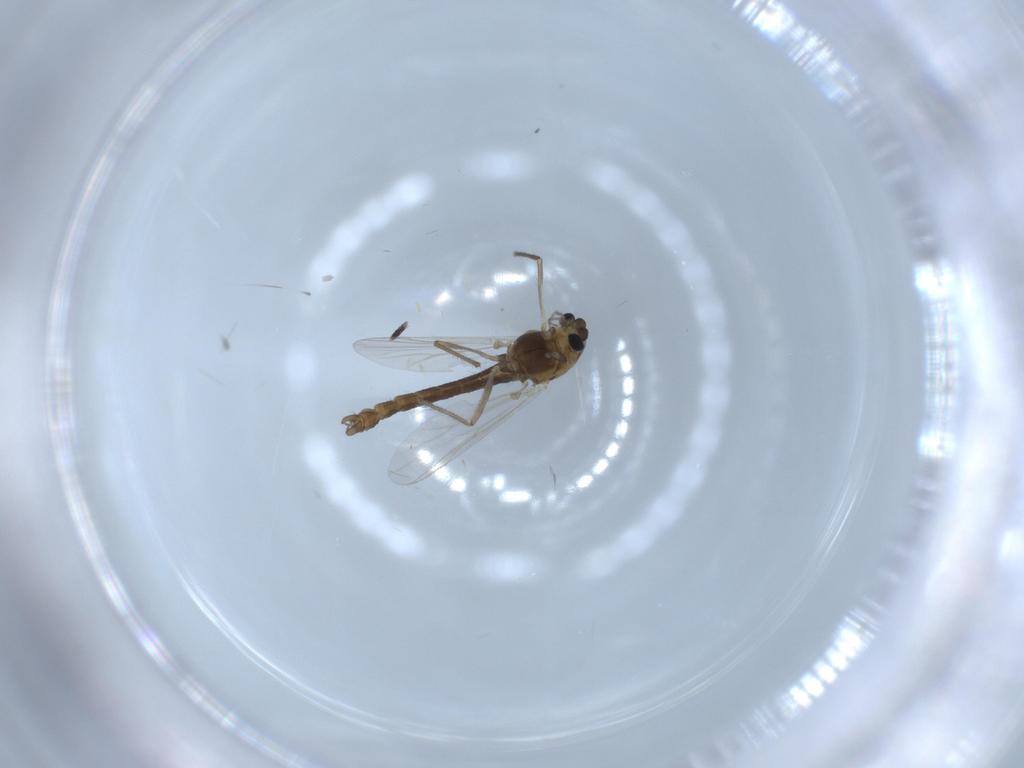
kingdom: Animalia
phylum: Arthropoda
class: Insecta
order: Diptera
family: Chironomidae
